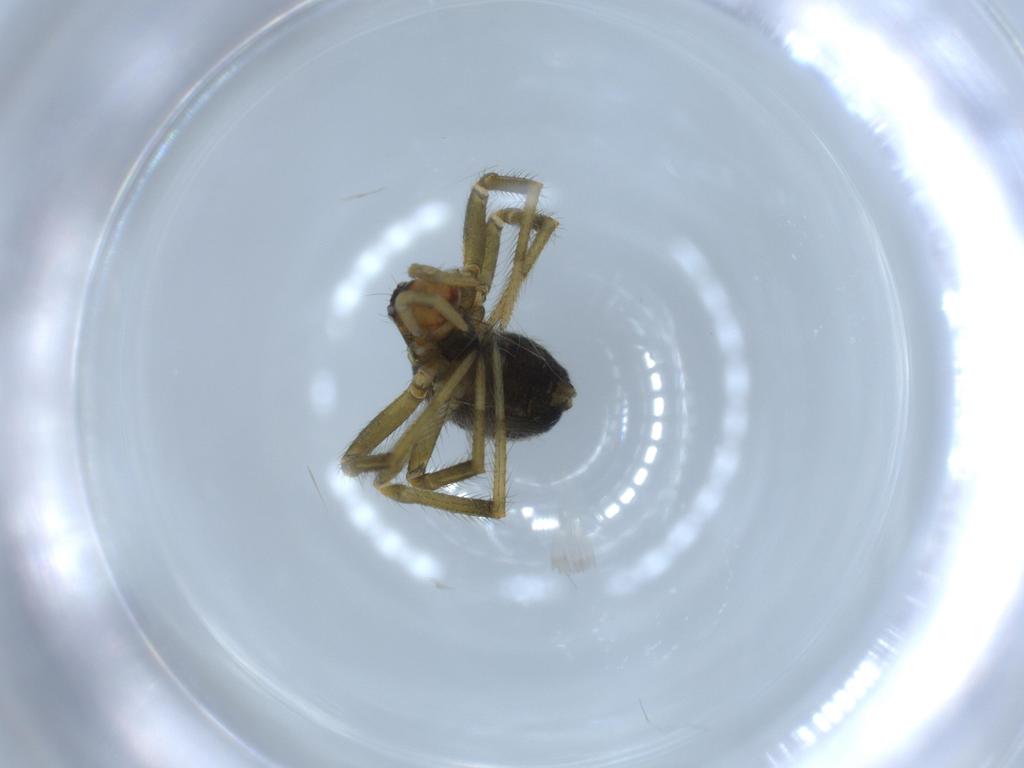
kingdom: Animalia
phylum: Arthropoda
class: Arachnida
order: Araneae
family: Nesticidae
